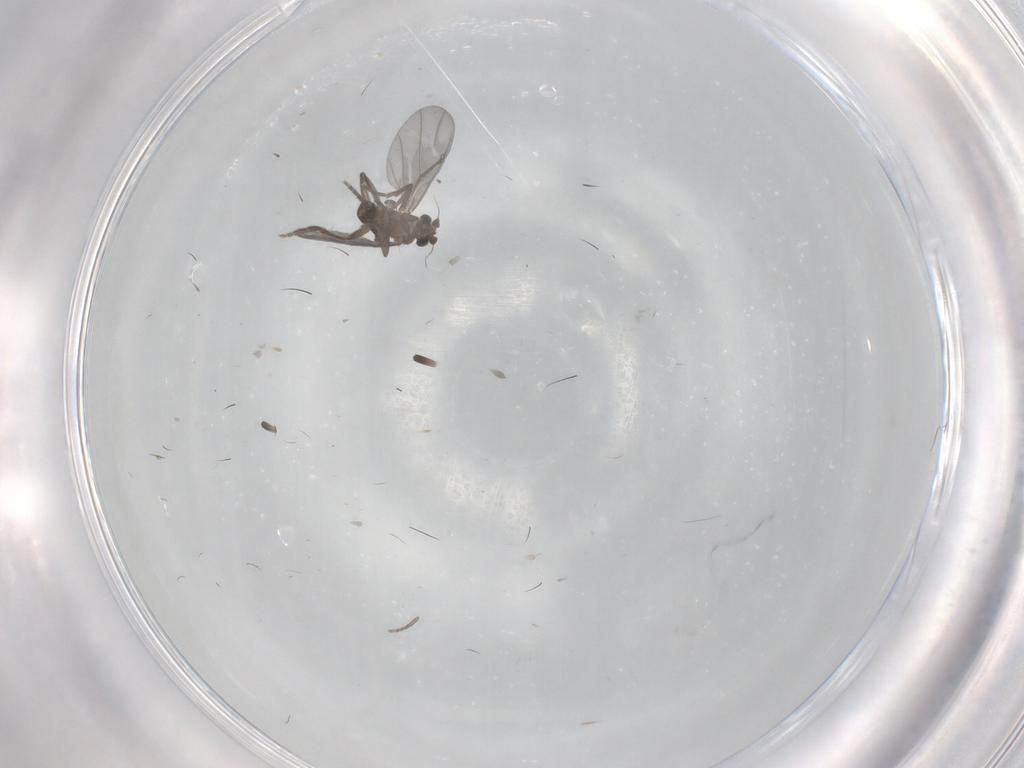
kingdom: Animalia
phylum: Arthropoda
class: Insecta
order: Diptera
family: Phoridae
